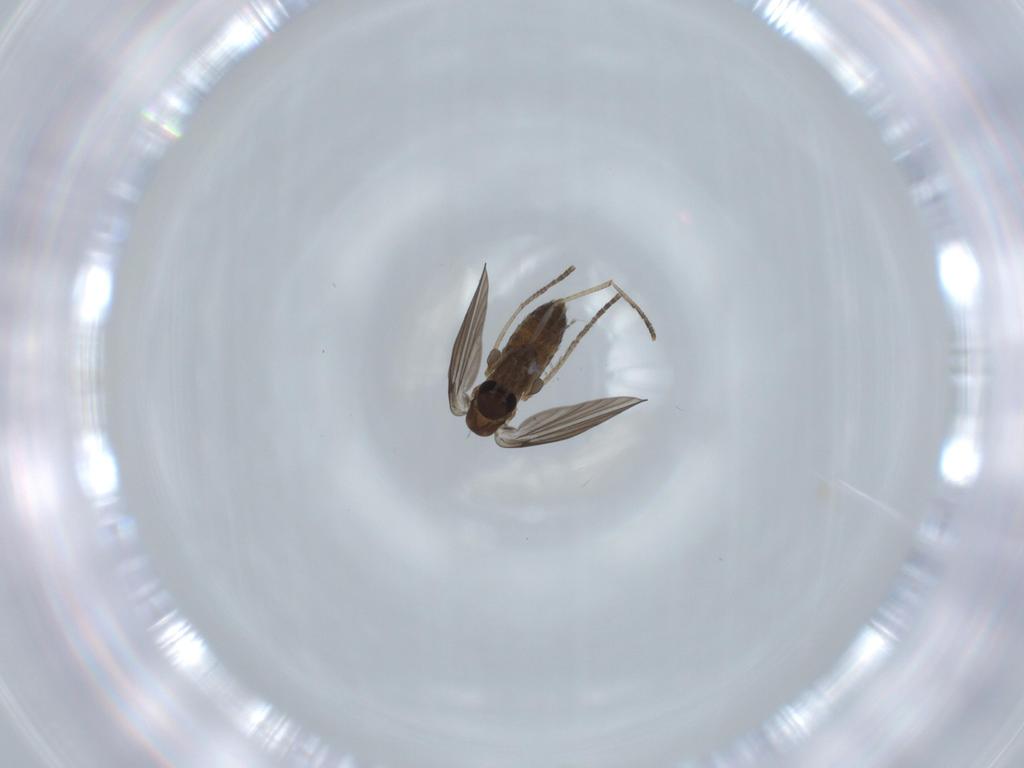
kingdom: Animalia
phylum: Arthropoda
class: Insecta
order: Diptera
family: Psychodidae
